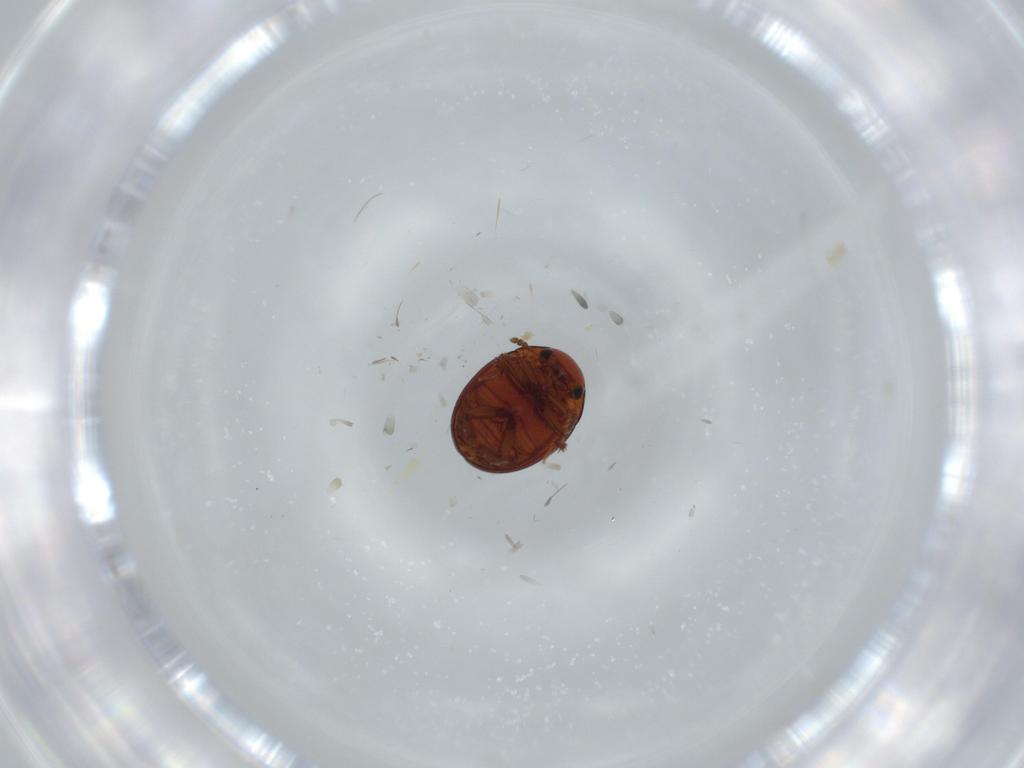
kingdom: Animalia
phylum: Arthropoda
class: Insecta
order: Coleoptera
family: Leiodidae
